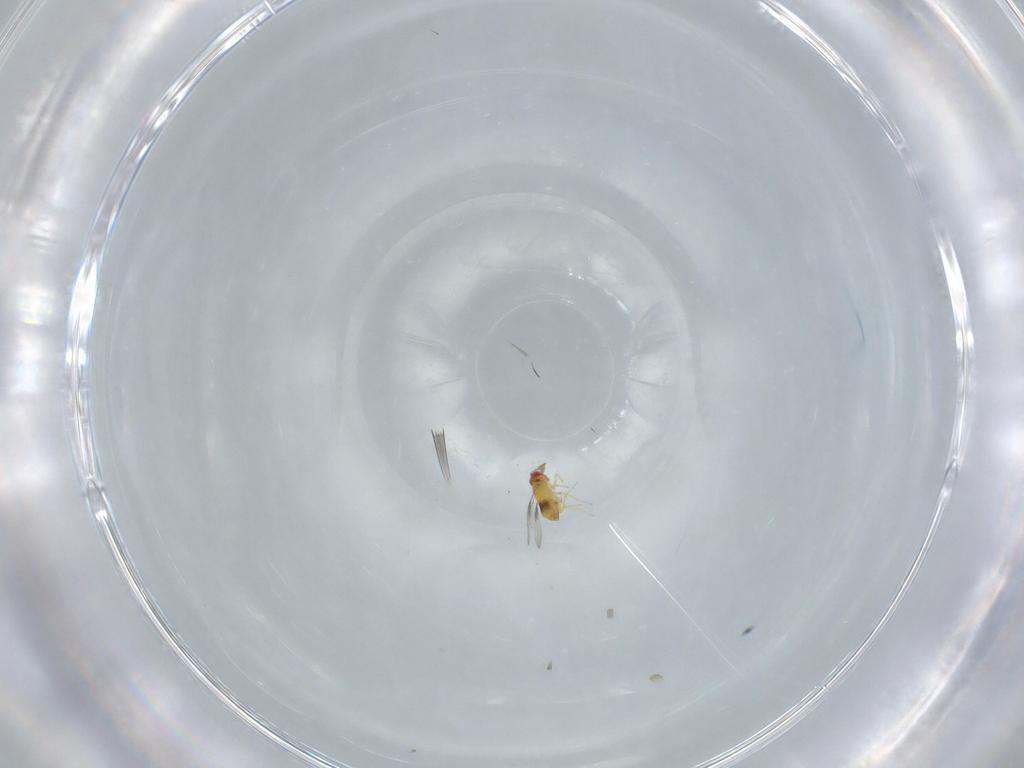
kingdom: Animalia
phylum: Arthropoda
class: Insecta
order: Hymenoptera
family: Trichogrammatidae
